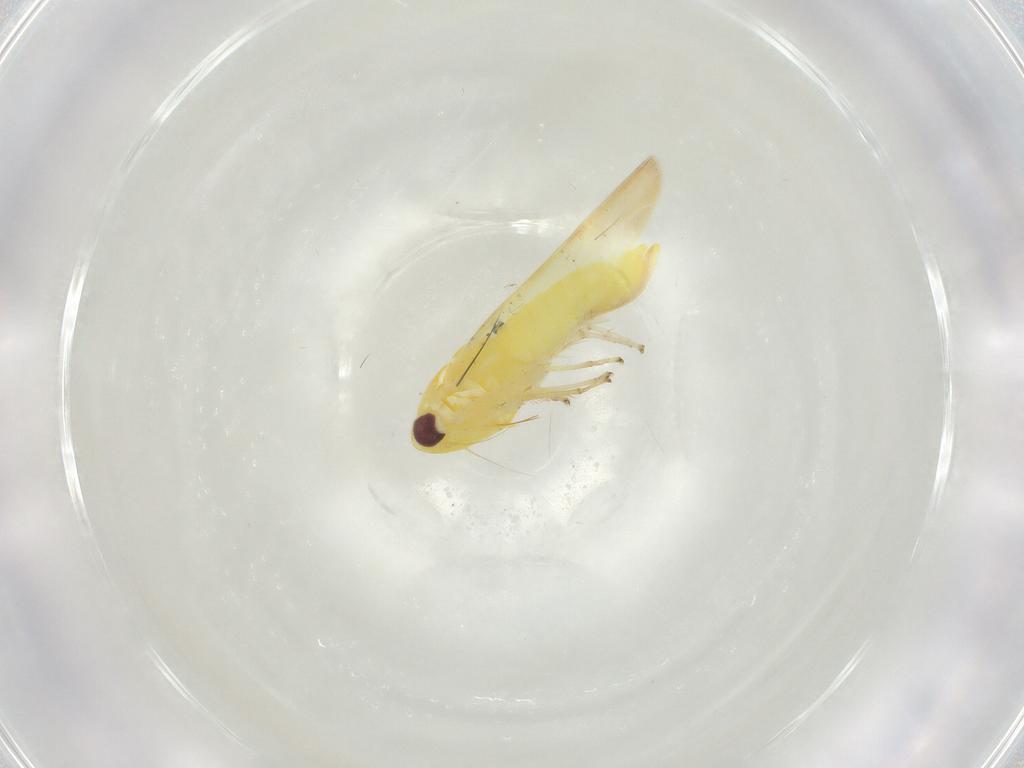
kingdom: Animalia
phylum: Arthropoda
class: Insecta
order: Hemiptera
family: Cicadellidae
